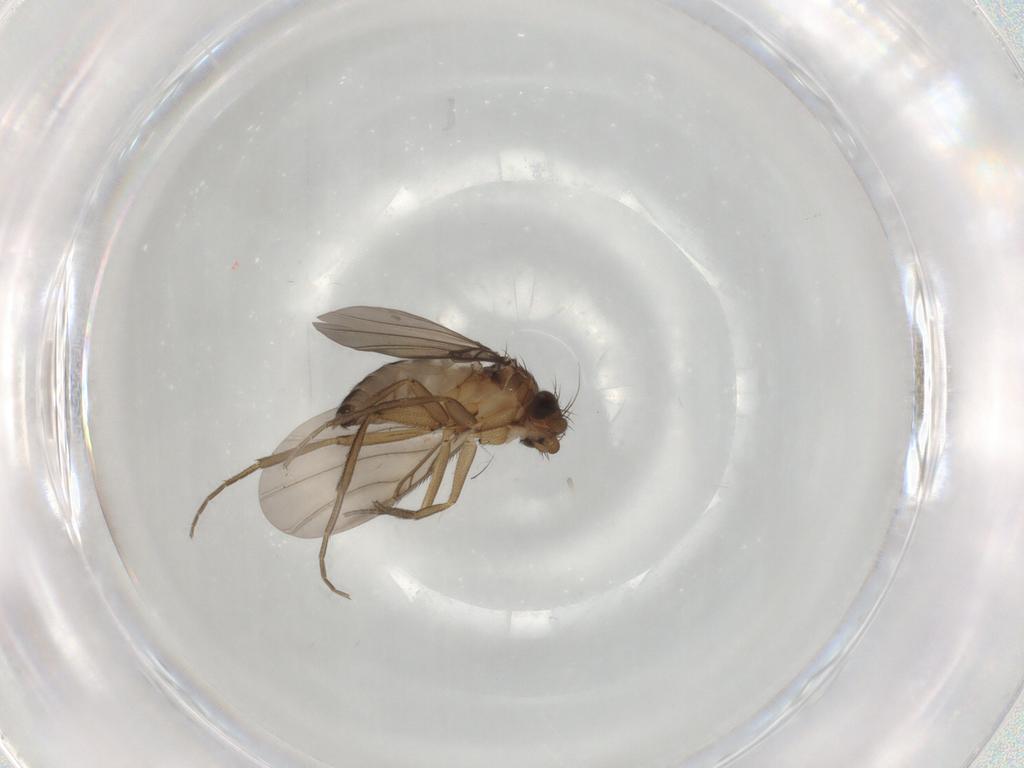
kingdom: Animalia
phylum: Arthropoda
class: Insecta
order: Diptera
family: Phoridae
